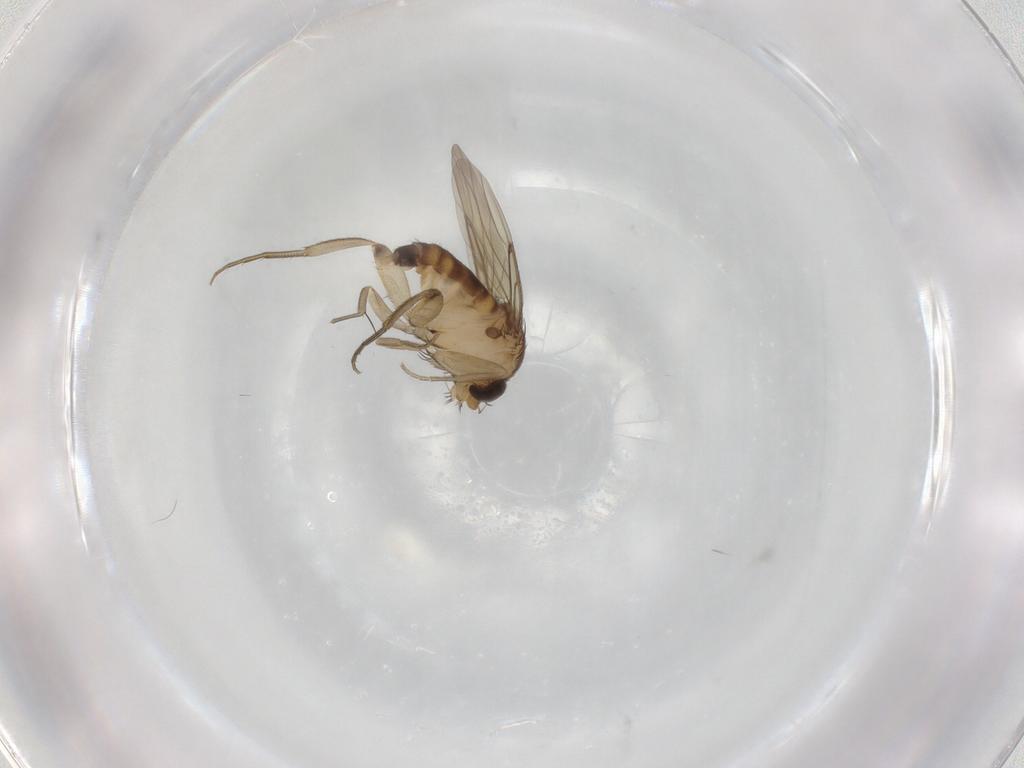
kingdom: Animalia
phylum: Arthropoda
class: Insecta
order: Diptera
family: Phoridae
